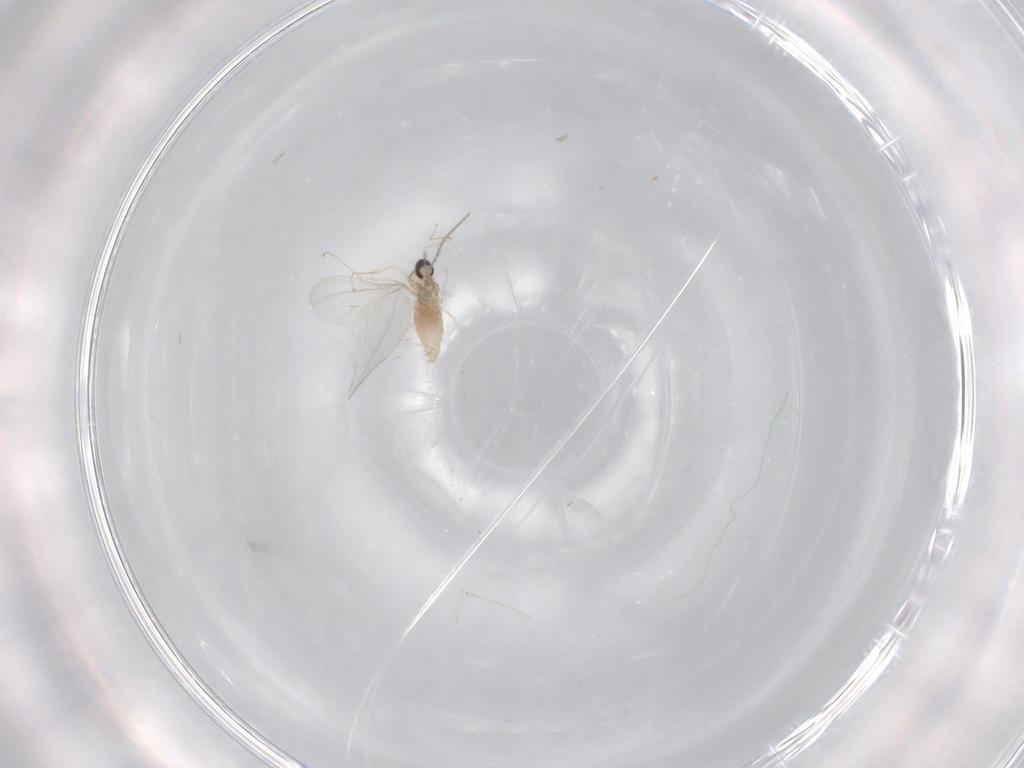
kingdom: Animalia
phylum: Arthropoda
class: Insecta
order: Diptera
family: Cecidomyiidae
